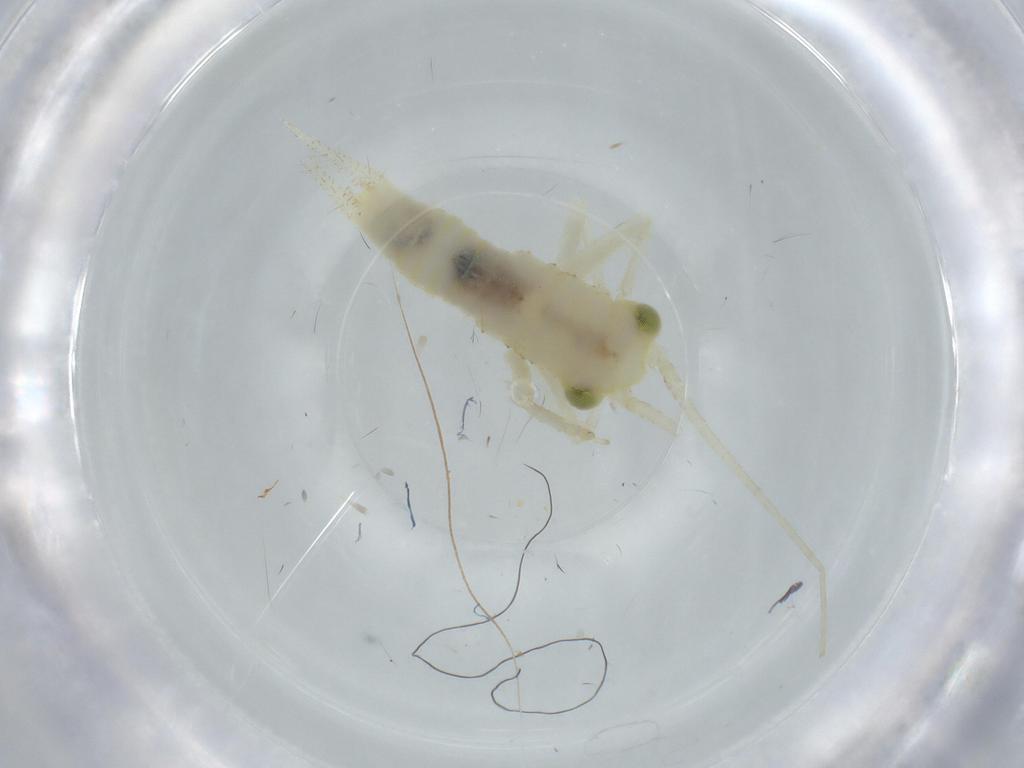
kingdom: Animalia
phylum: Arthropoda
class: Insecta
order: Orthoptera
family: Trigonidiidae
